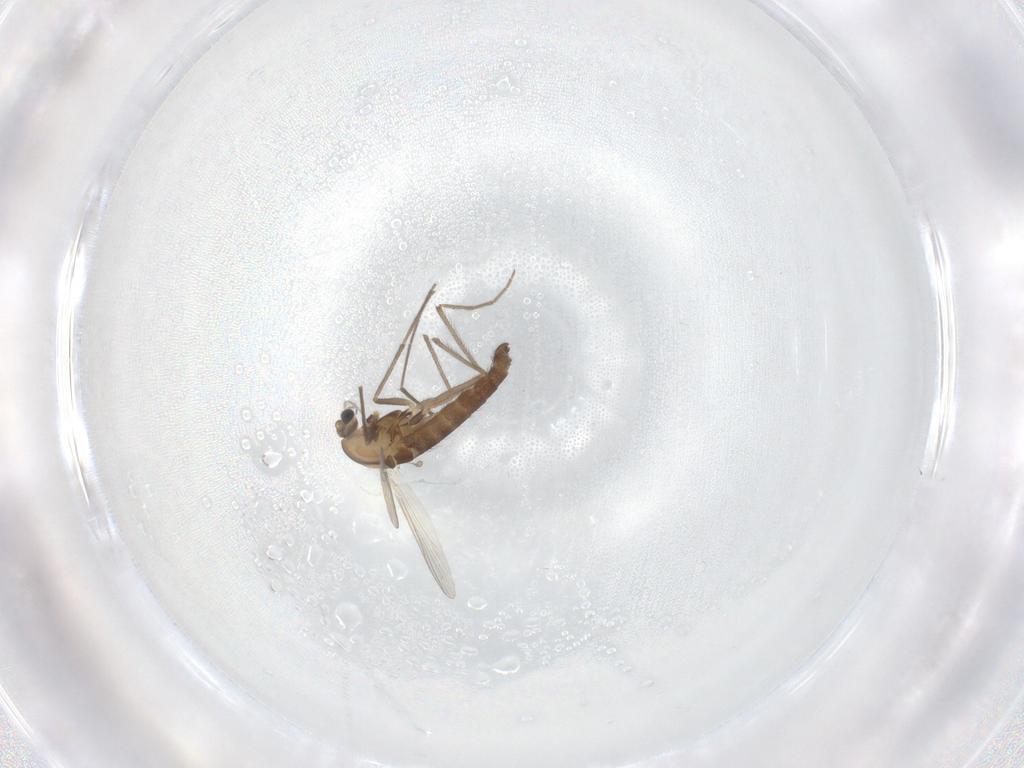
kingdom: Animalia
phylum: Arthropoda
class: Insecta
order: Diptera
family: Chironomidae
